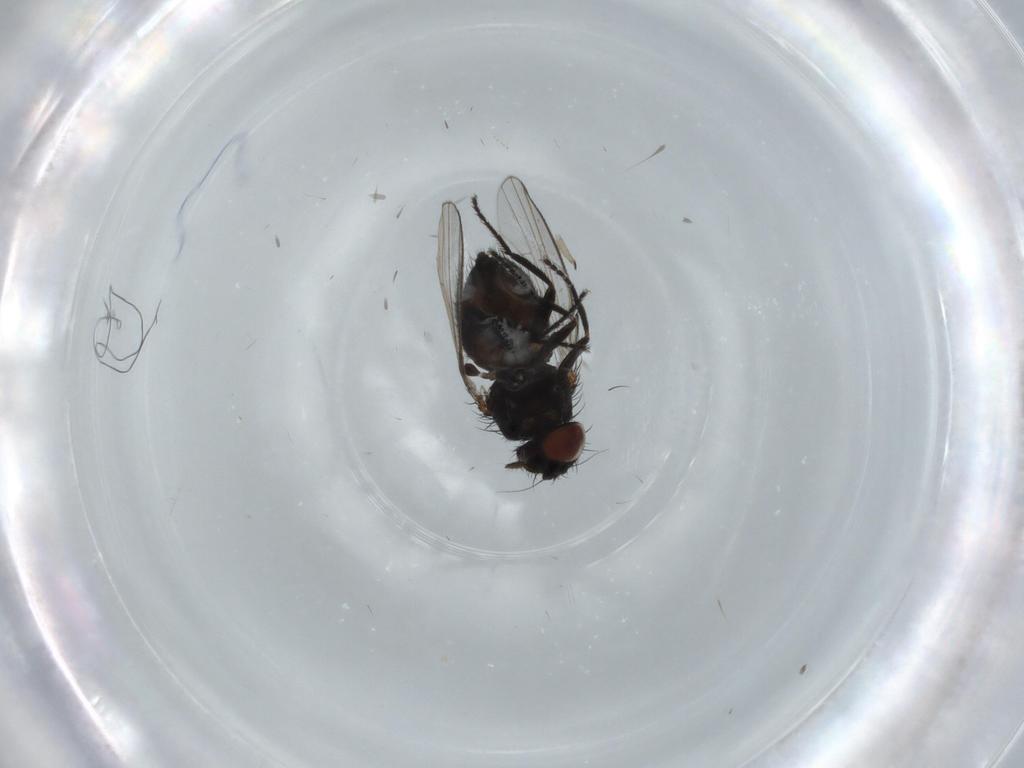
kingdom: Animalia
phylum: Arthropoda
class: Insecta
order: Diptera
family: Milichiidae
